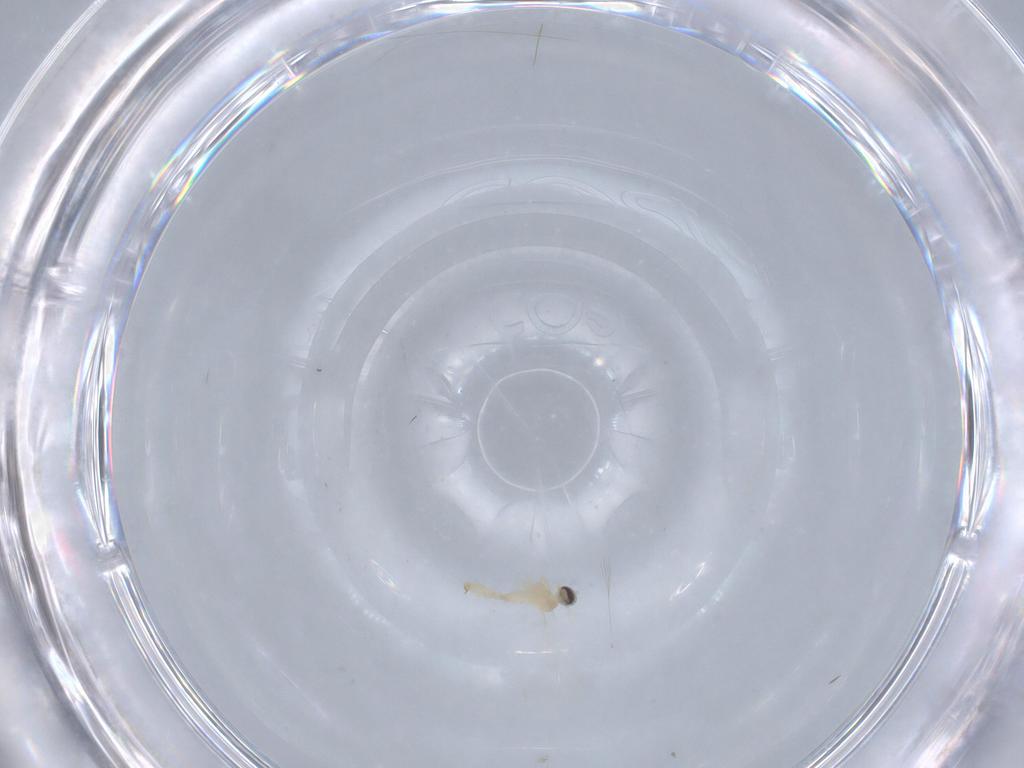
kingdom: Animalia
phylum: Arthropoda
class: Insecta
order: Diptera
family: Cecidomyiidae
